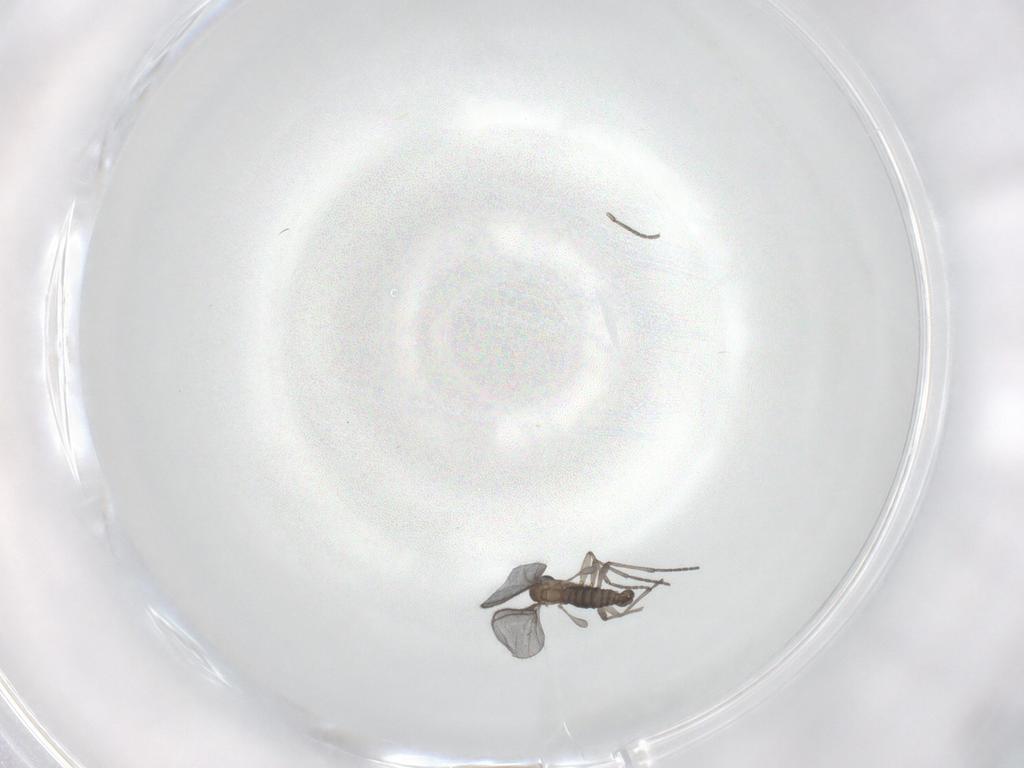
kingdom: Animalia
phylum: Arthropoda
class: Insecta
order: Diptera
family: Sciaridae
